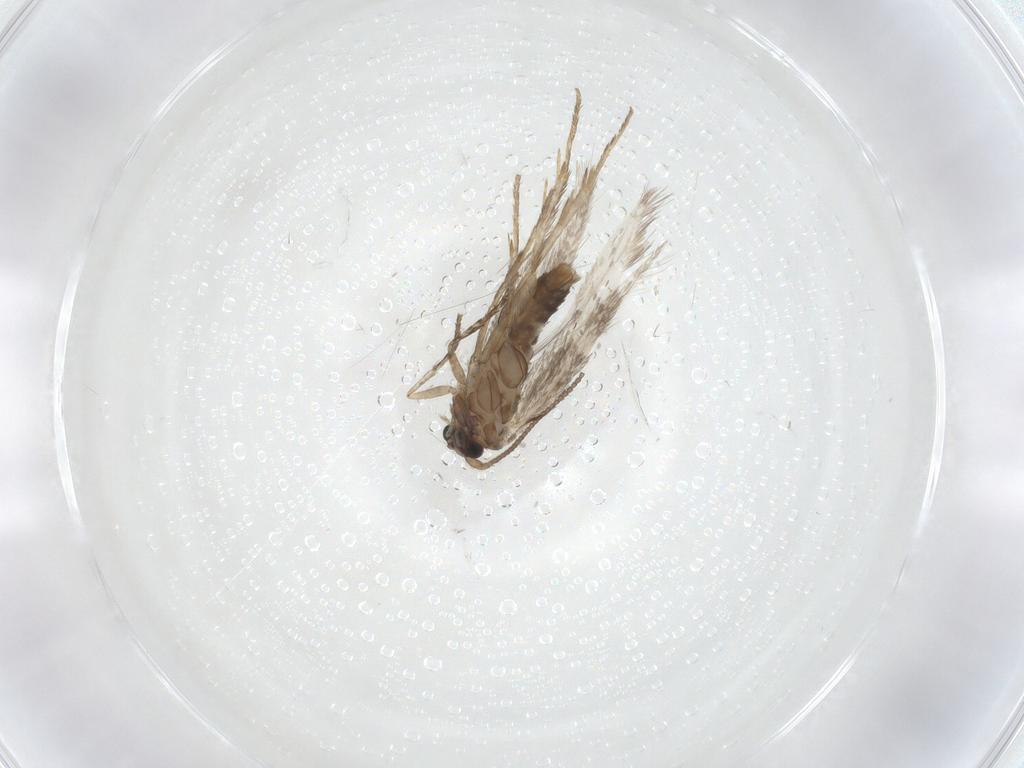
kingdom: Animalia
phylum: Arthropoda
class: Insecta
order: Lepidoptera
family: Nepticulidae
